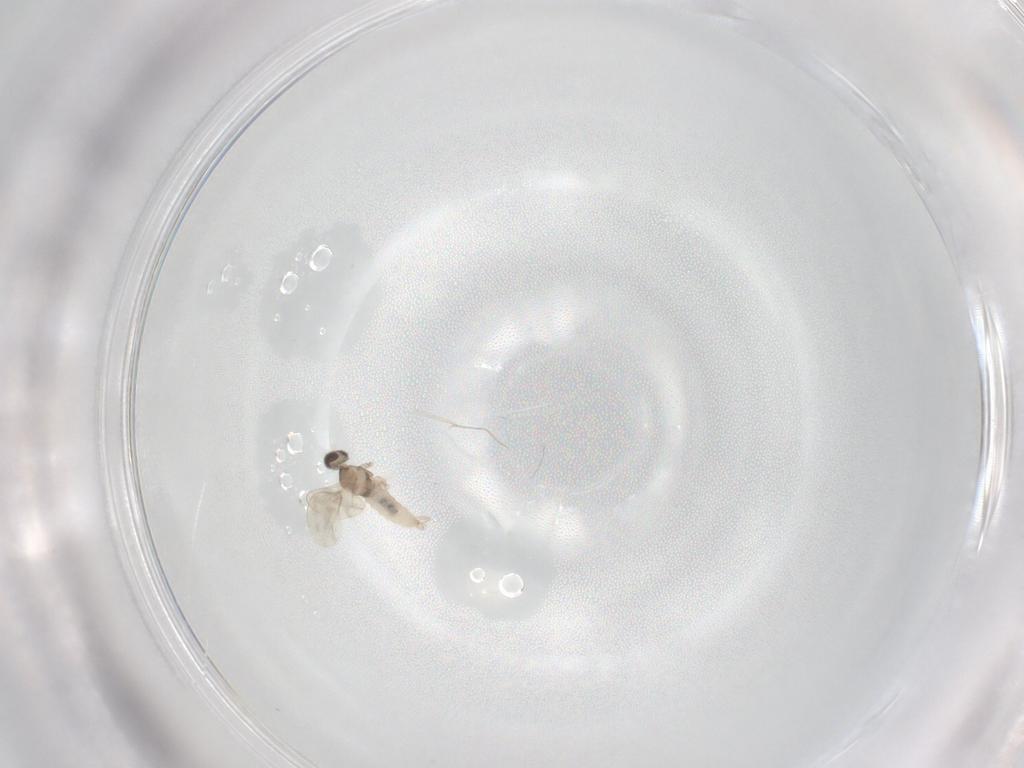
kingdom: Animalia
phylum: Arthropoda
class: Insecta
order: Diptera
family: Cecidomyiidae
